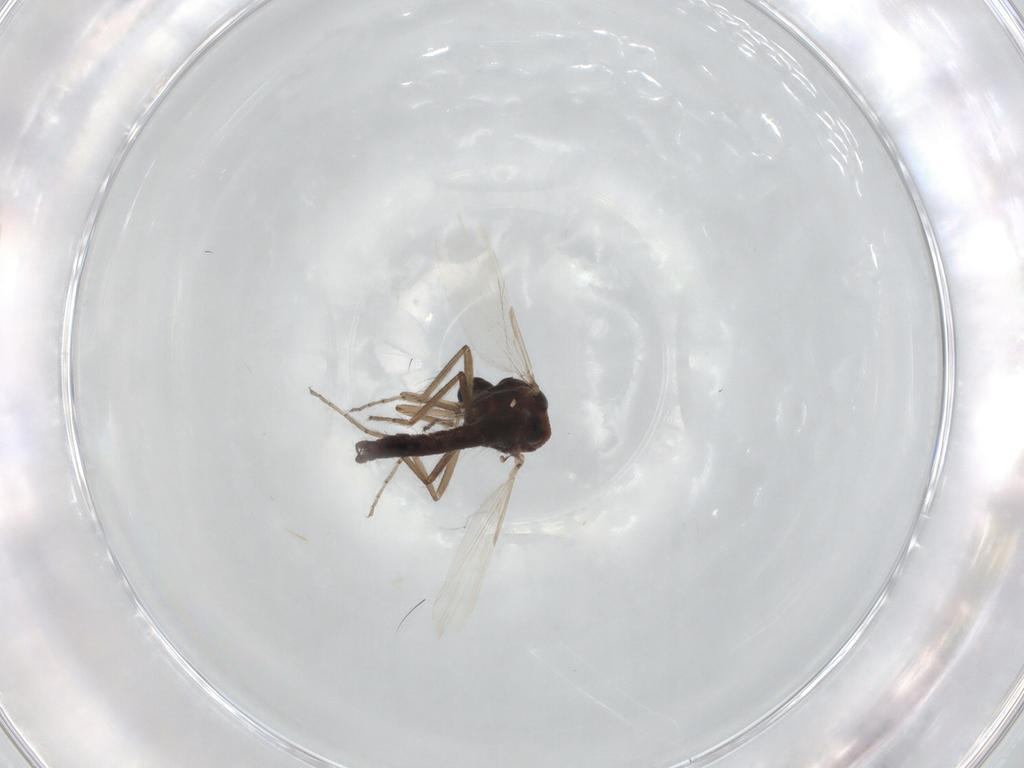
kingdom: Animalia
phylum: Arthropoda
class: Insecta
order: Diptera
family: Ceratopogonidae
